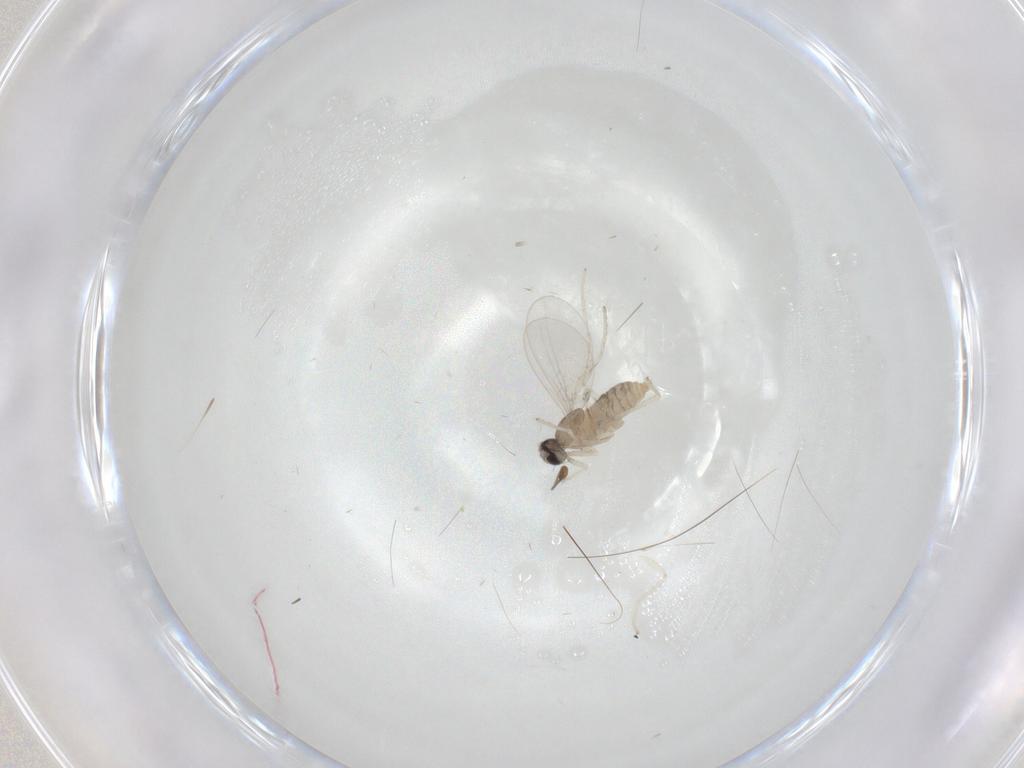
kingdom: Animalia
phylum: Arthropoda
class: Insecta
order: Diptera
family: Cecidomyiidae
